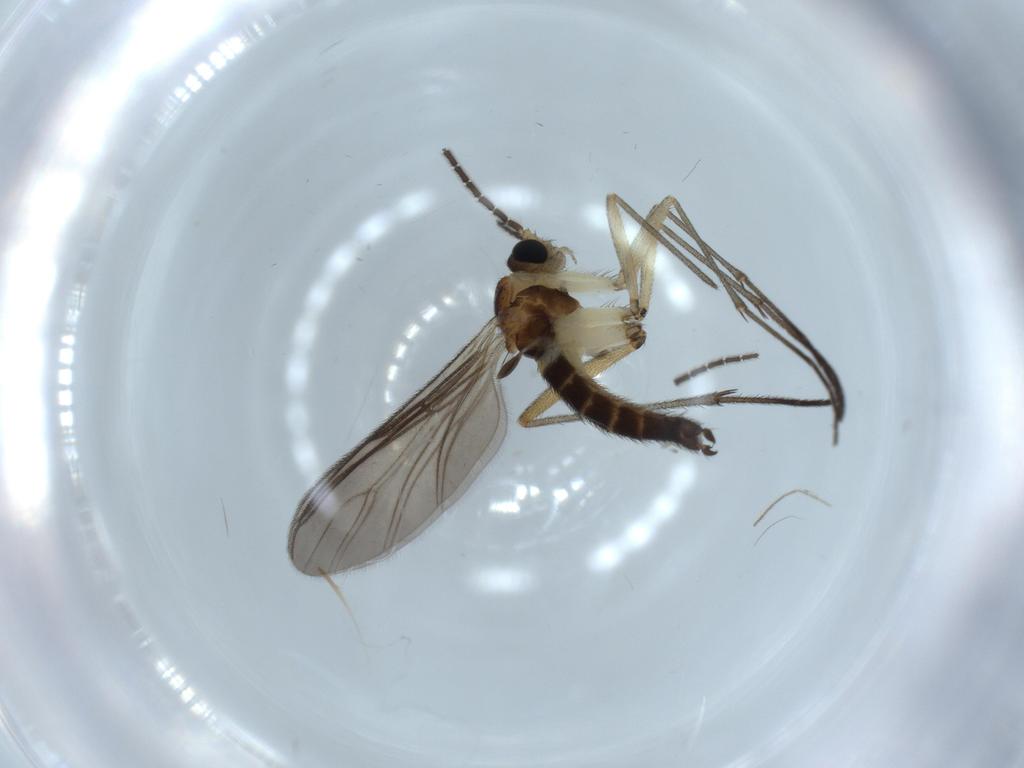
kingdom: Animalia
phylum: Arthropoda
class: Insecta
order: Diptera
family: Sciaridae
